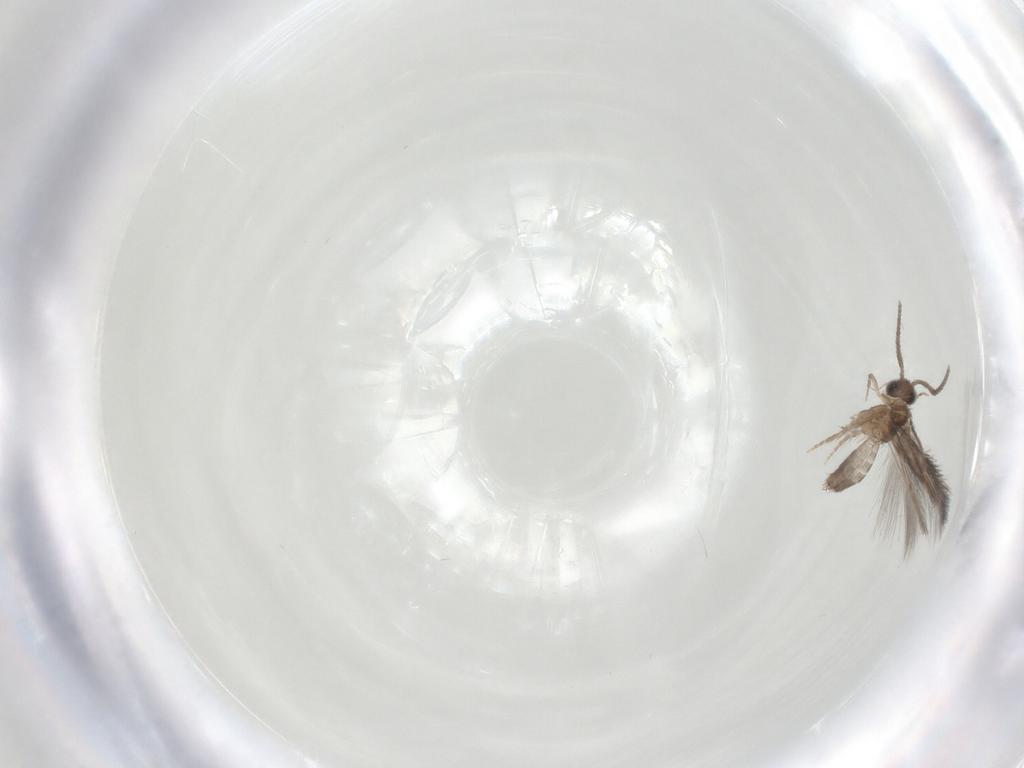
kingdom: Animalia
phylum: Arthropoda
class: Insecta
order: Trichoptera
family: Hydroptilidae
